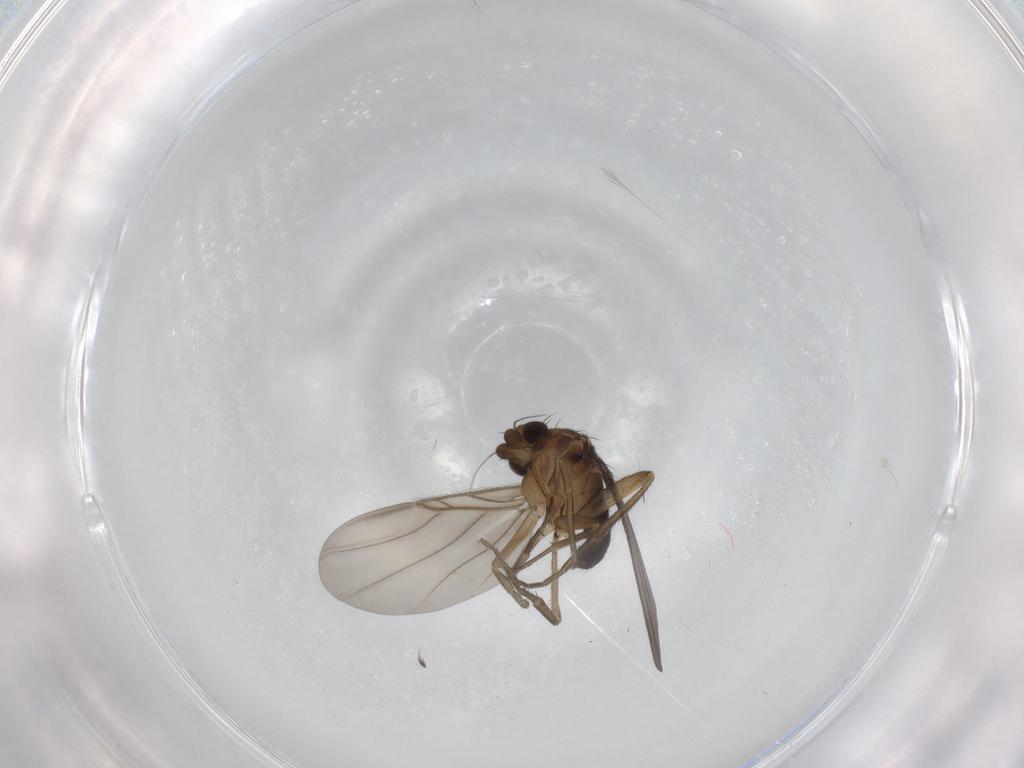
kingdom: Animalia
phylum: Arthropoda
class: Insecta
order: Diptera
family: Phoridae
